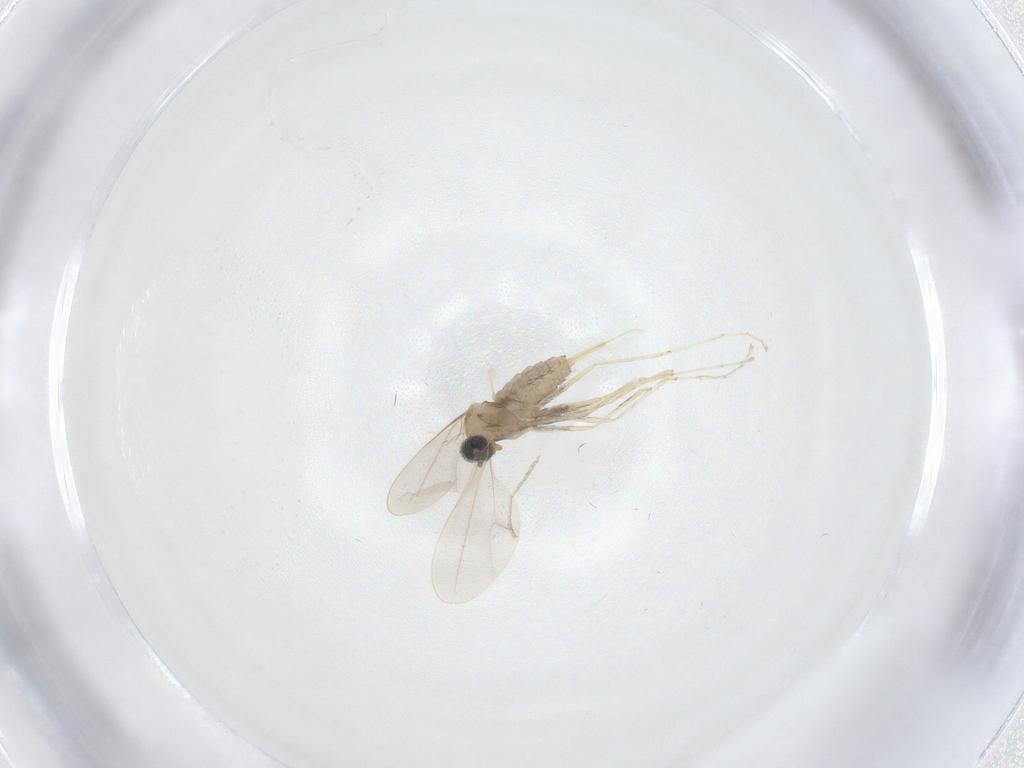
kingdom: Animalia
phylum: Arthropoda
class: Insecta
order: Diptera
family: Cecidomyiidae
